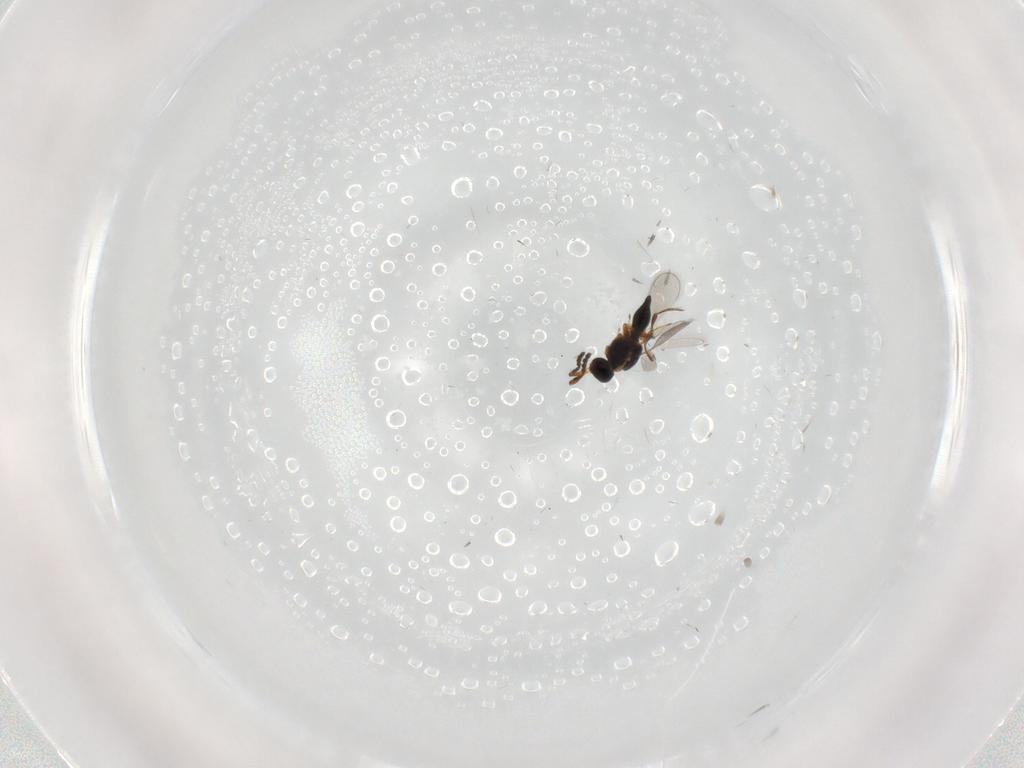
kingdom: Animalia
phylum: Arthropoda
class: Insecta
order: Hymenoptera
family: Platygastridae
